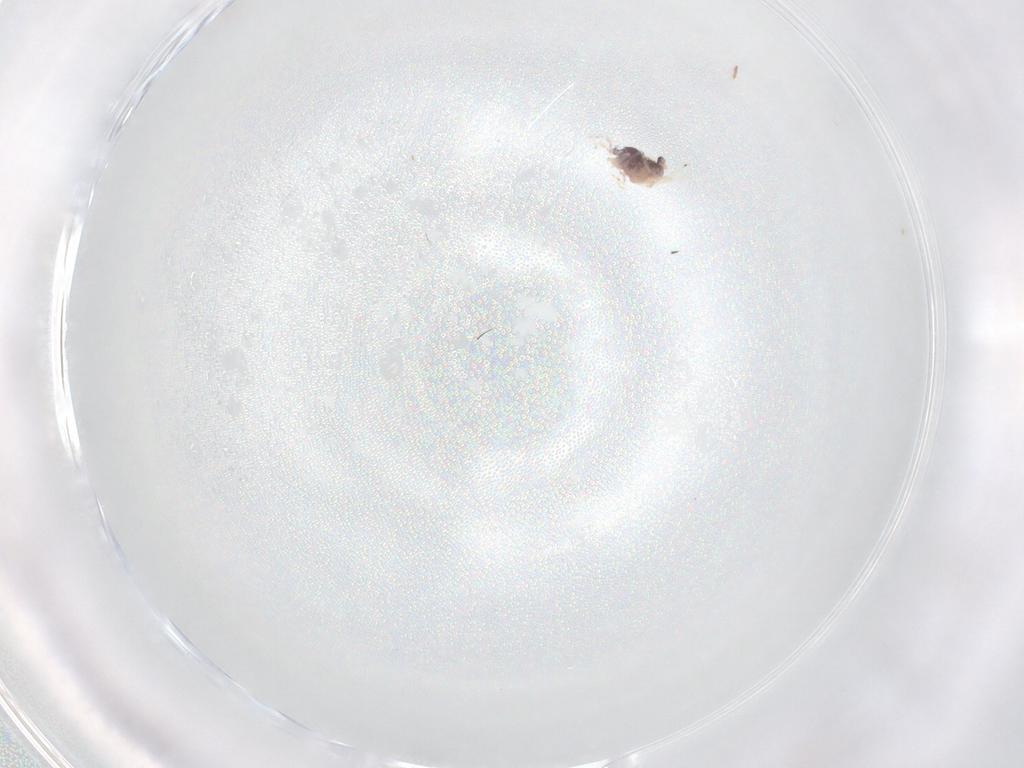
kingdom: Animalia
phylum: Arthropoda
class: Collembola
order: Symphypleona
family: Bourletiellidae
